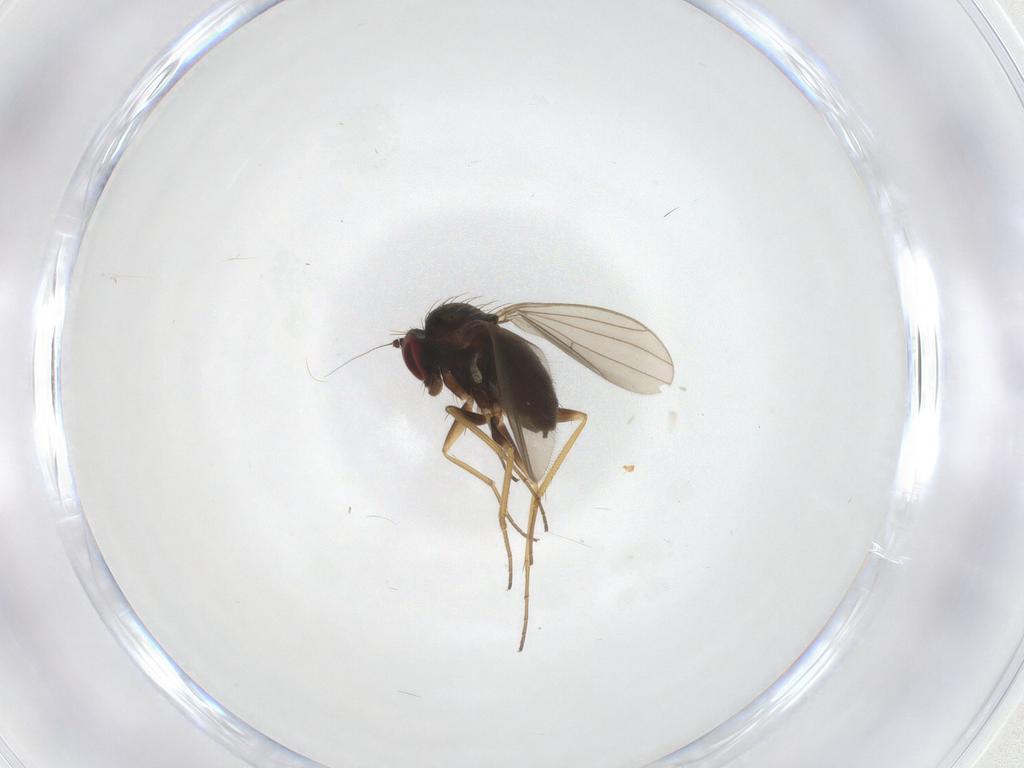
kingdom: Animalia
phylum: Arthropoda
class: Insecta
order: Diptera
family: Dolichopodidae
